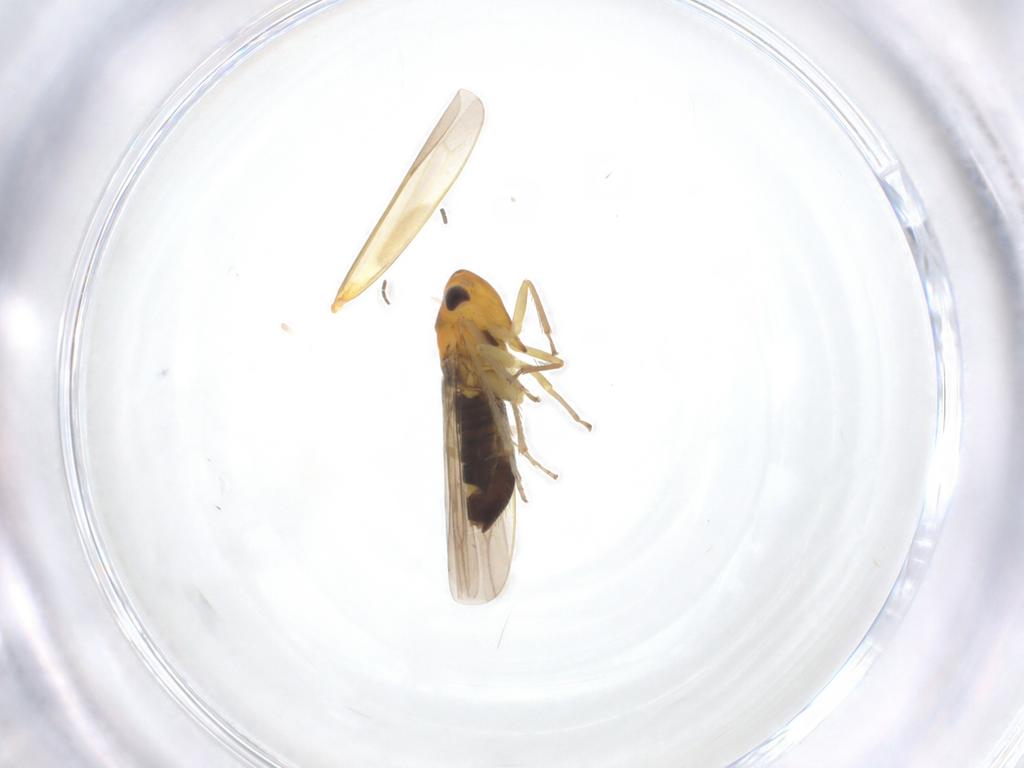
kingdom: Animalia
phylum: Arthropoda
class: Insecta
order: Hemiptera
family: Cicadellidae
